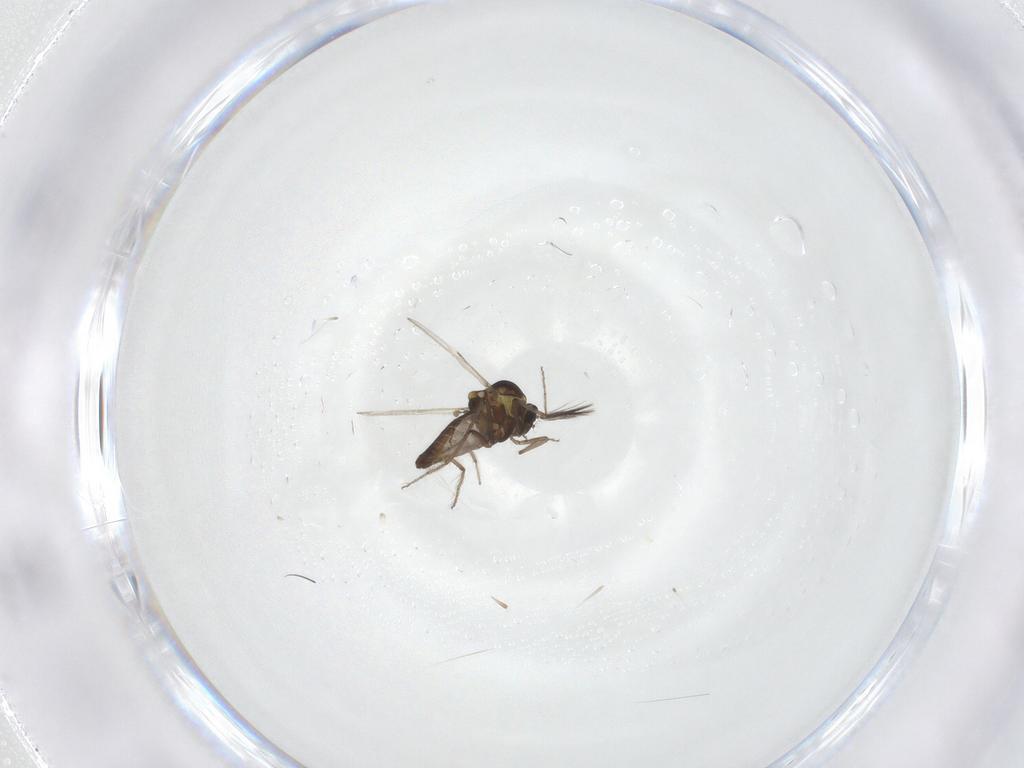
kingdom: Animalia
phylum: Arthropoda
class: Insecta
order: Diptera
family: Ceratopogonidae
